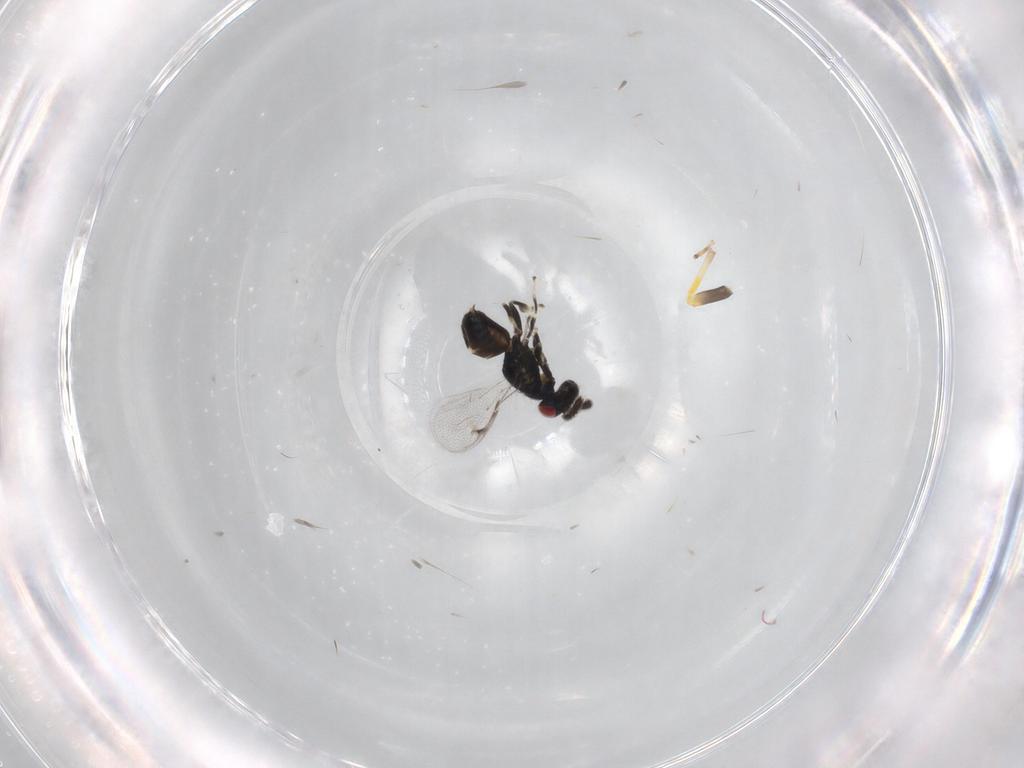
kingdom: Animalia
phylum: Arthropoda
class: Insecta
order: Hymenoptera
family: Pteromalidae
